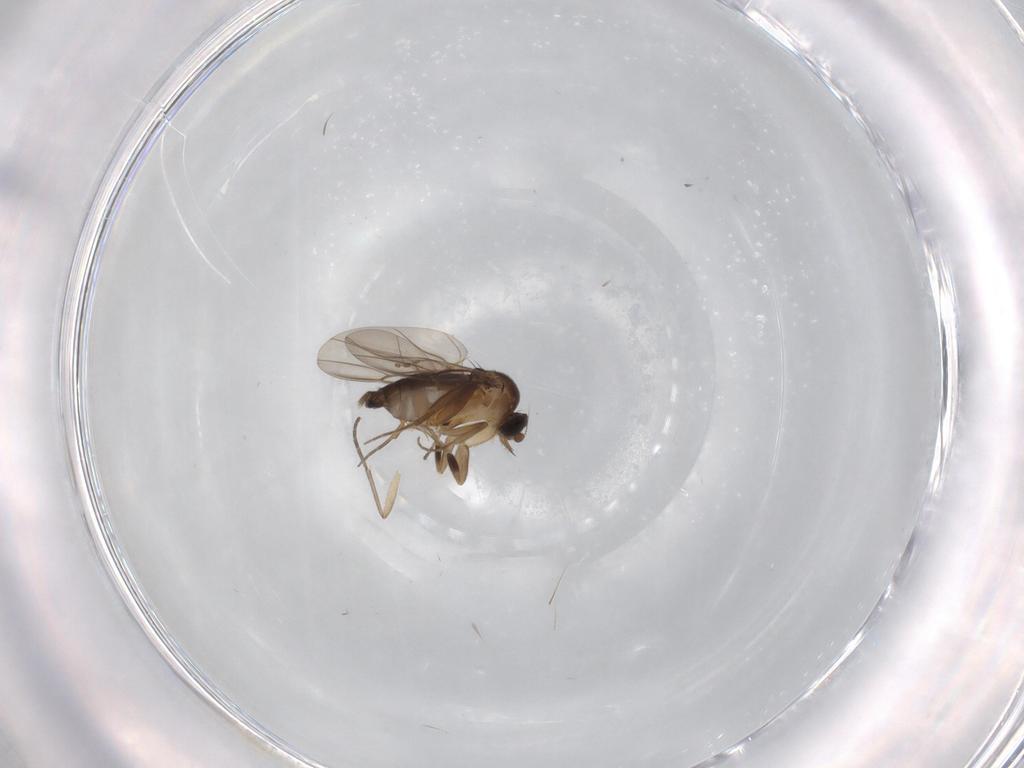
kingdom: Animalia
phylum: Arthropoda
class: Insecta
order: Diptera
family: Phoridae
